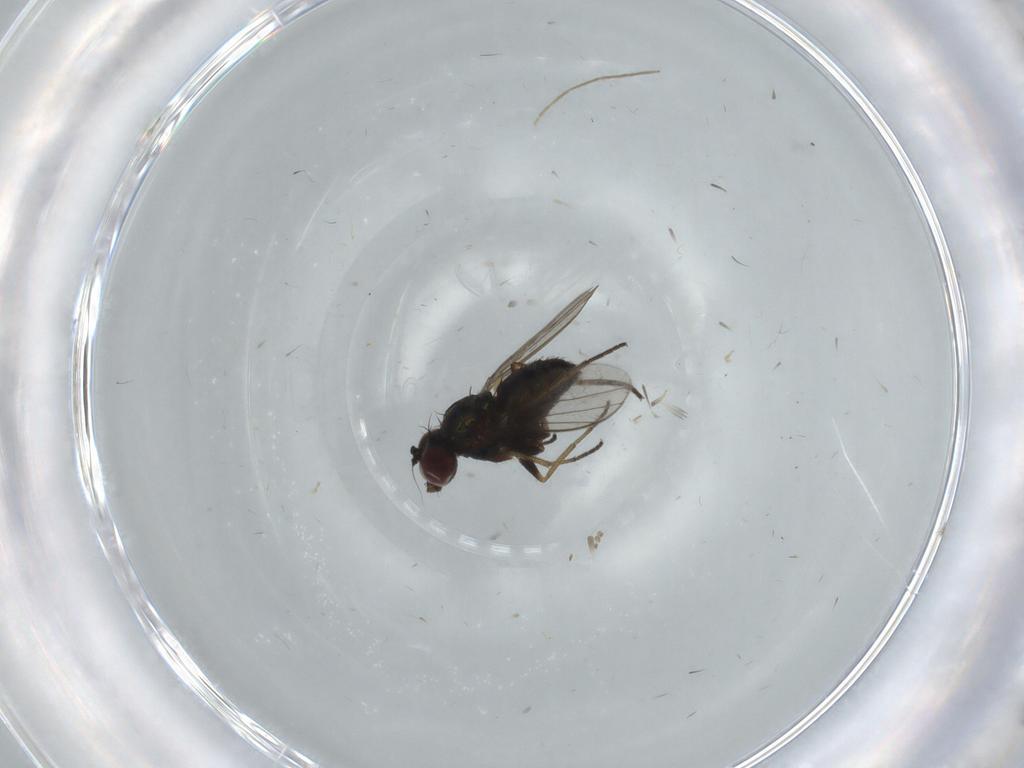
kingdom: Animalia
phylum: Arthropoda
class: Insecta
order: Diptera
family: Dolichopodidae
